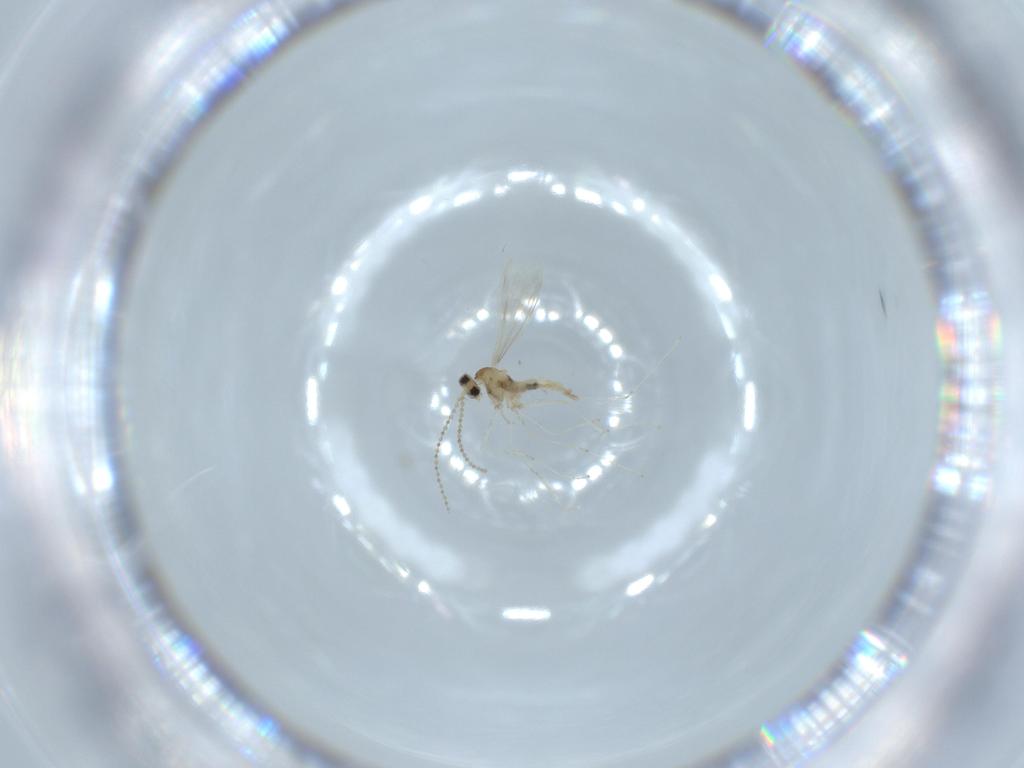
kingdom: Animalia
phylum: Arthropoda
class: Insecta
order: Diptera
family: Cecidomyiidae
